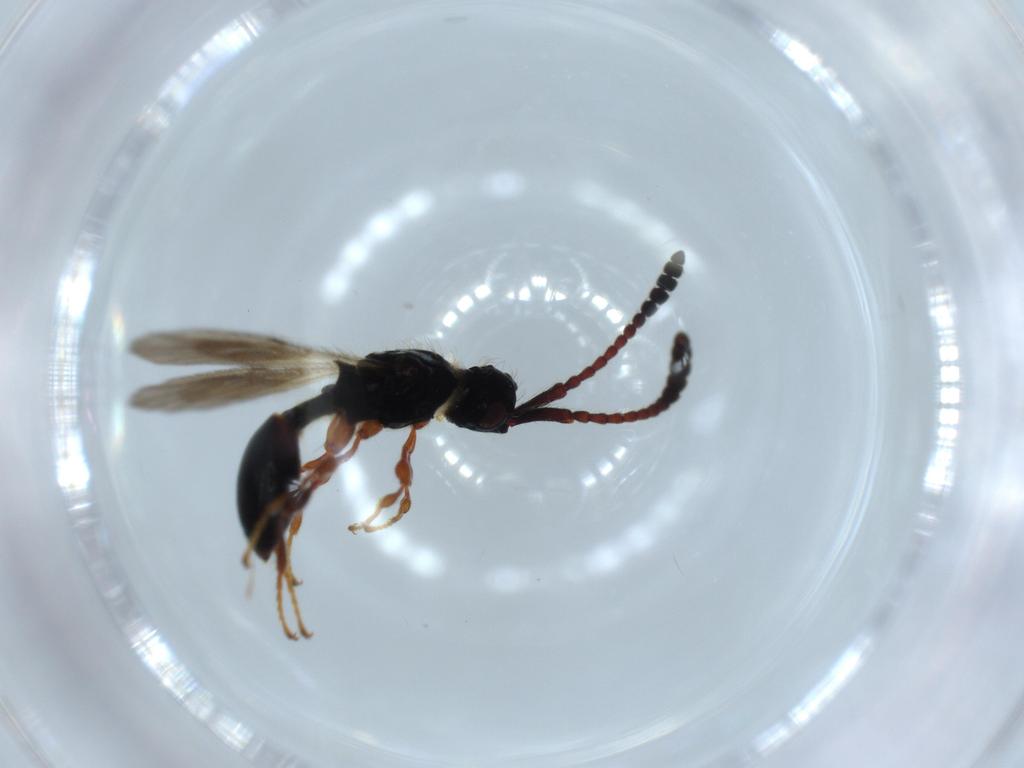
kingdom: Animalia
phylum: Arthropoda
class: Insecta
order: Hymenoptera
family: Diapriidae
